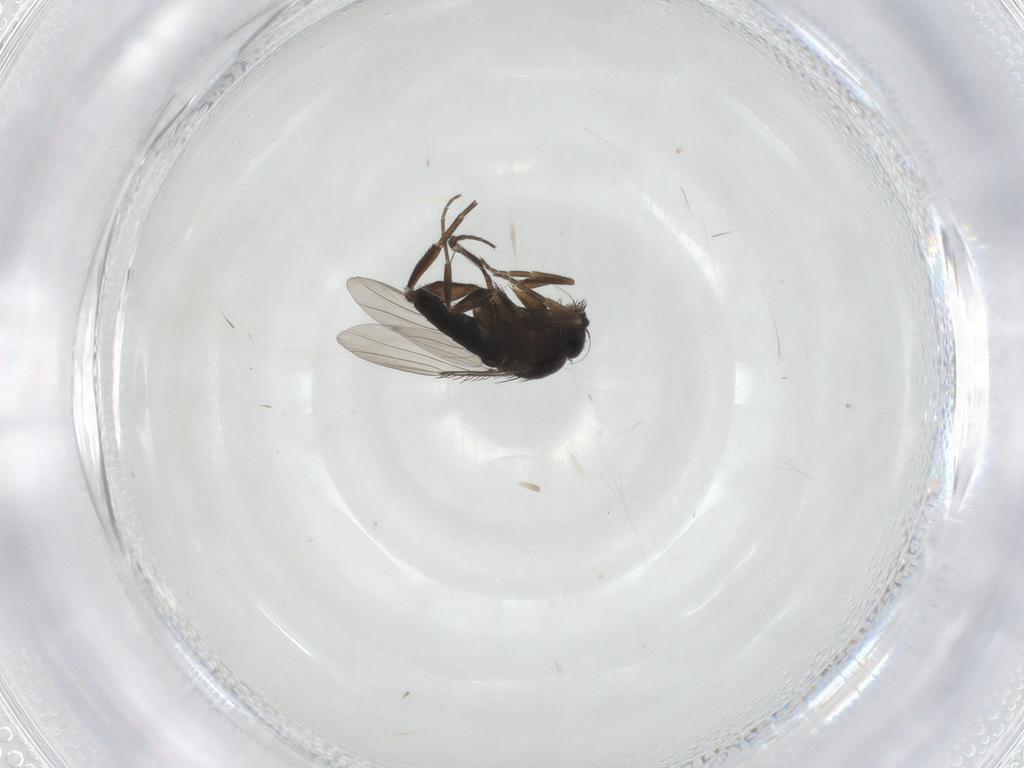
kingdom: Animalia
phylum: Arthropoda
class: Insecta
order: Diptera
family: Phoridae
